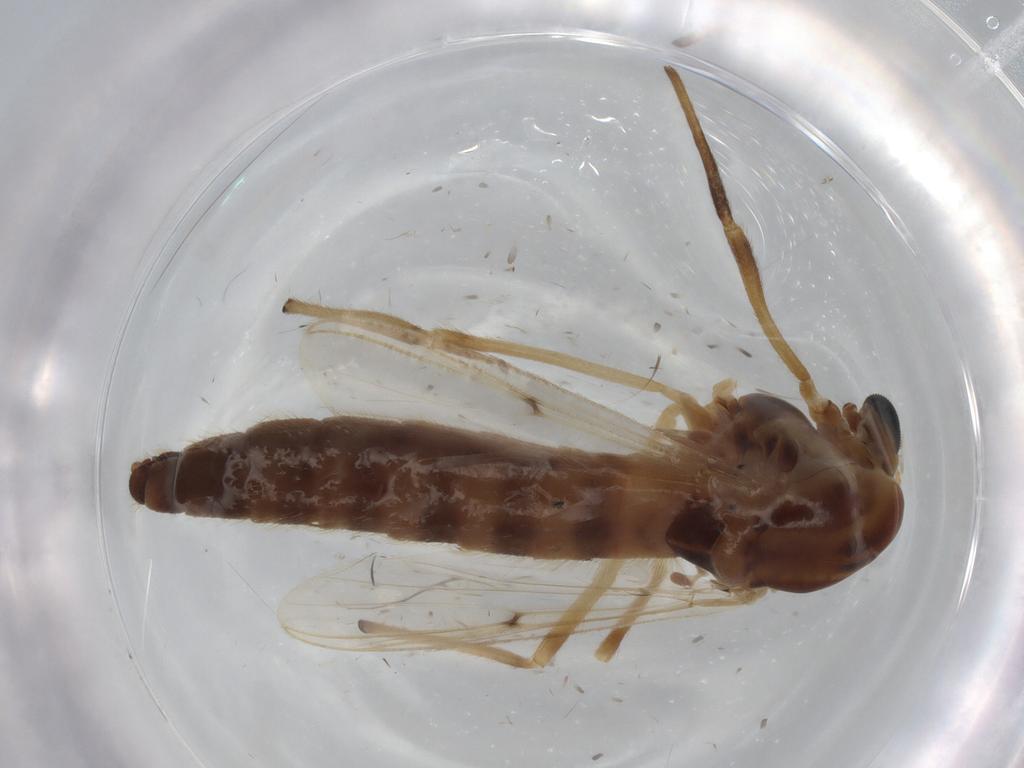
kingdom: Animalia
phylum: Arthropoda
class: Insecta
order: Diptera
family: Chironomidae
